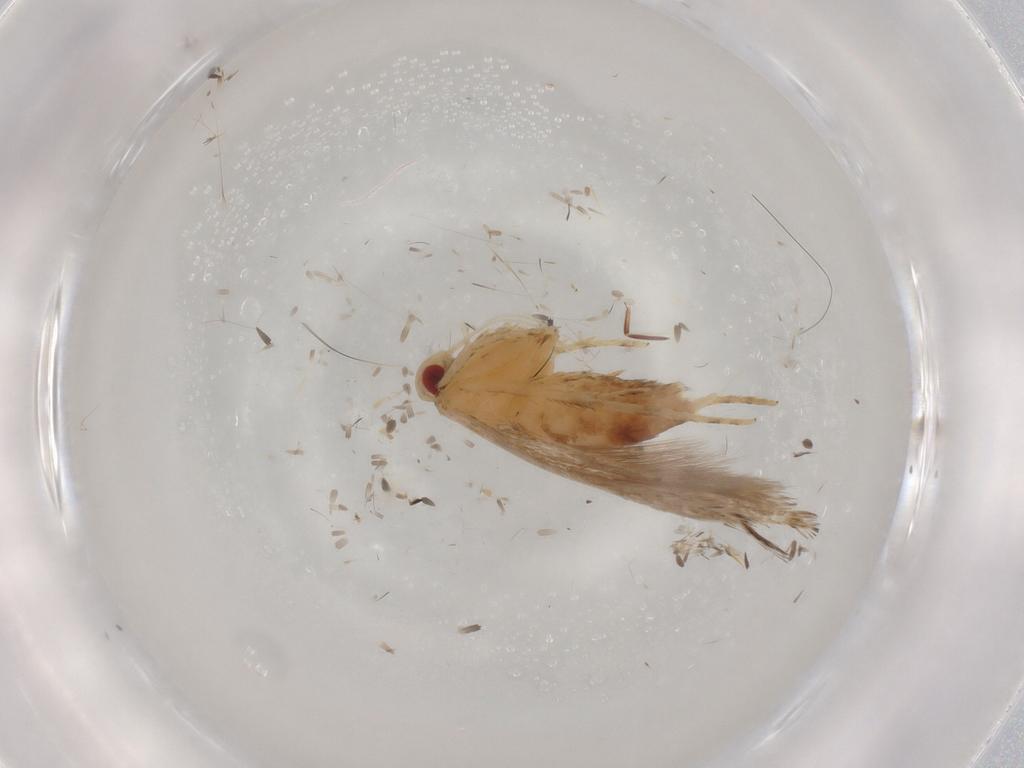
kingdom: Animalia
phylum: Arthropoda
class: Insecta
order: Lepidoptera
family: Cosmopterigidae
